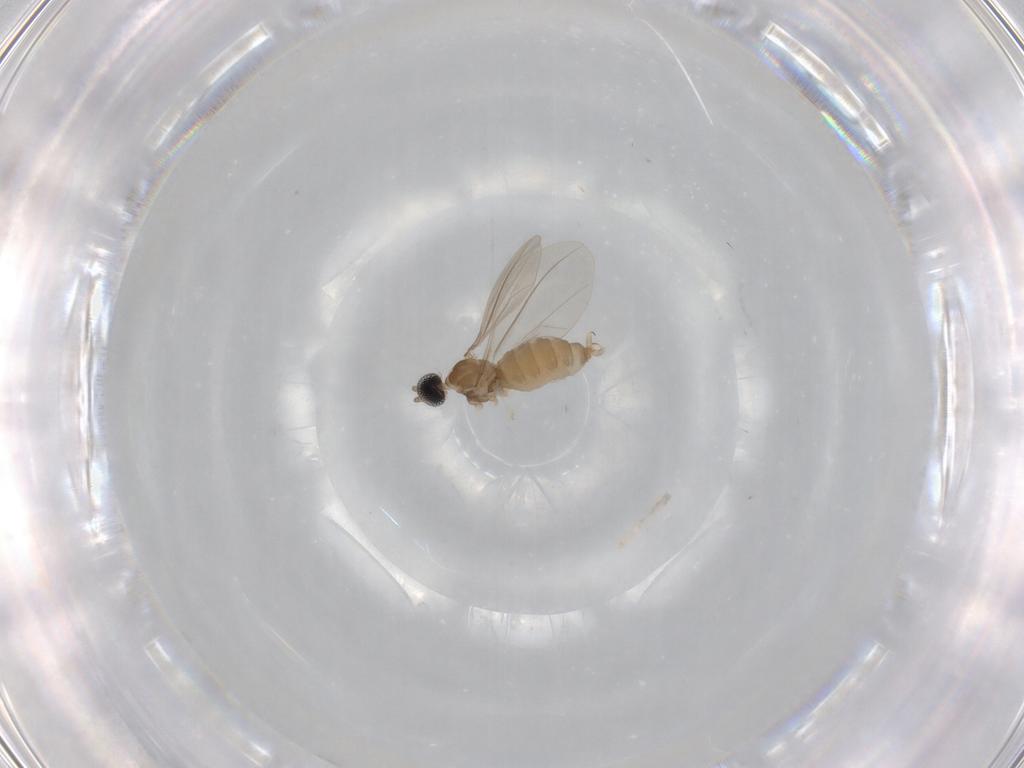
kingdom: Animalia
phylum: Arthropoda
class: Insecta
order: Diptera
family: Cecidomyiidae
